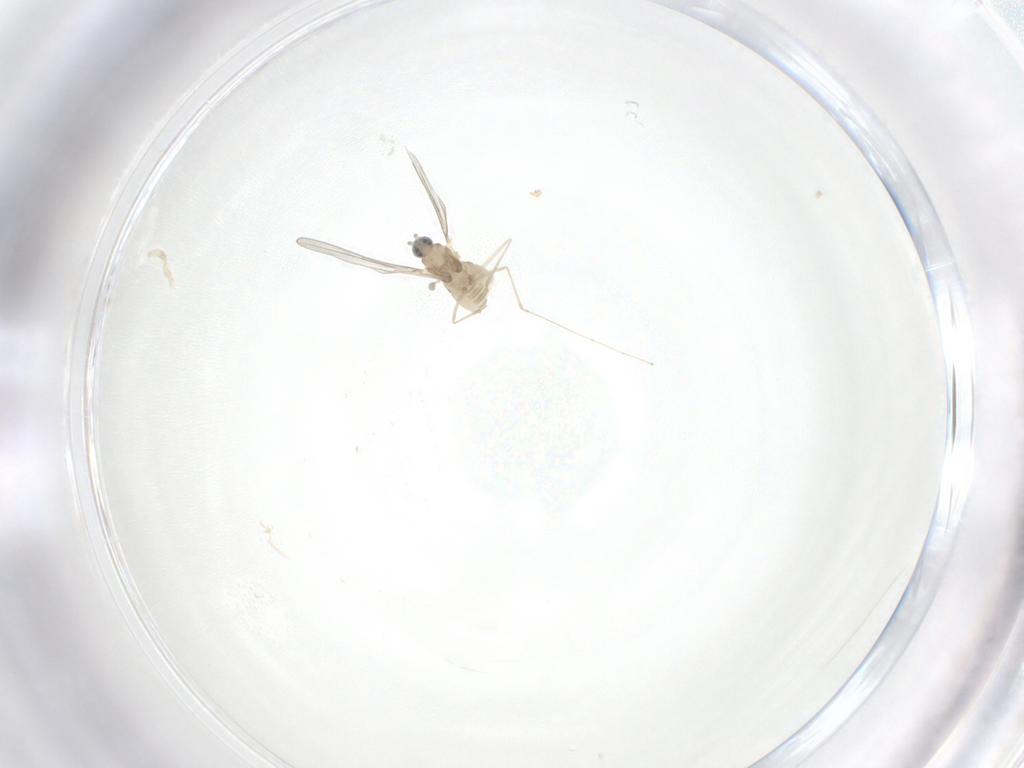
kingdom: Animalia
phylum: Arthropoda
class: Insecta
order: Diptera
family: Cecidomyiidae
